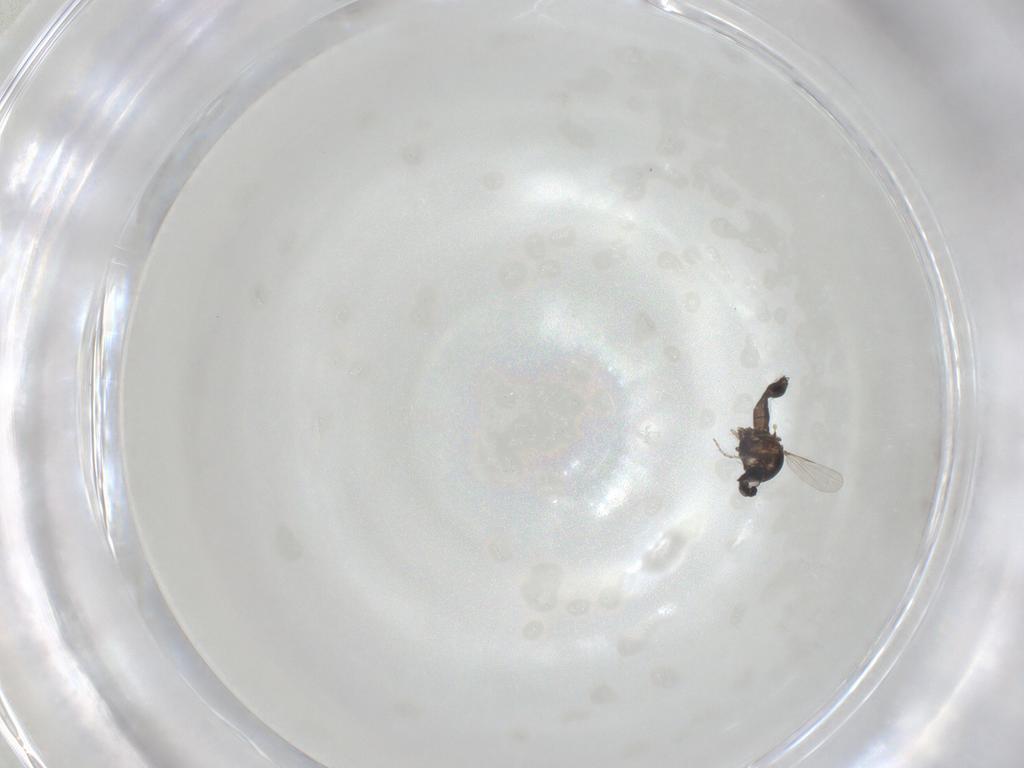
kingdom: Animalia
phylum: Arthropoda
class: Insecta
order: Diptera
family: Ceratopogonidae
